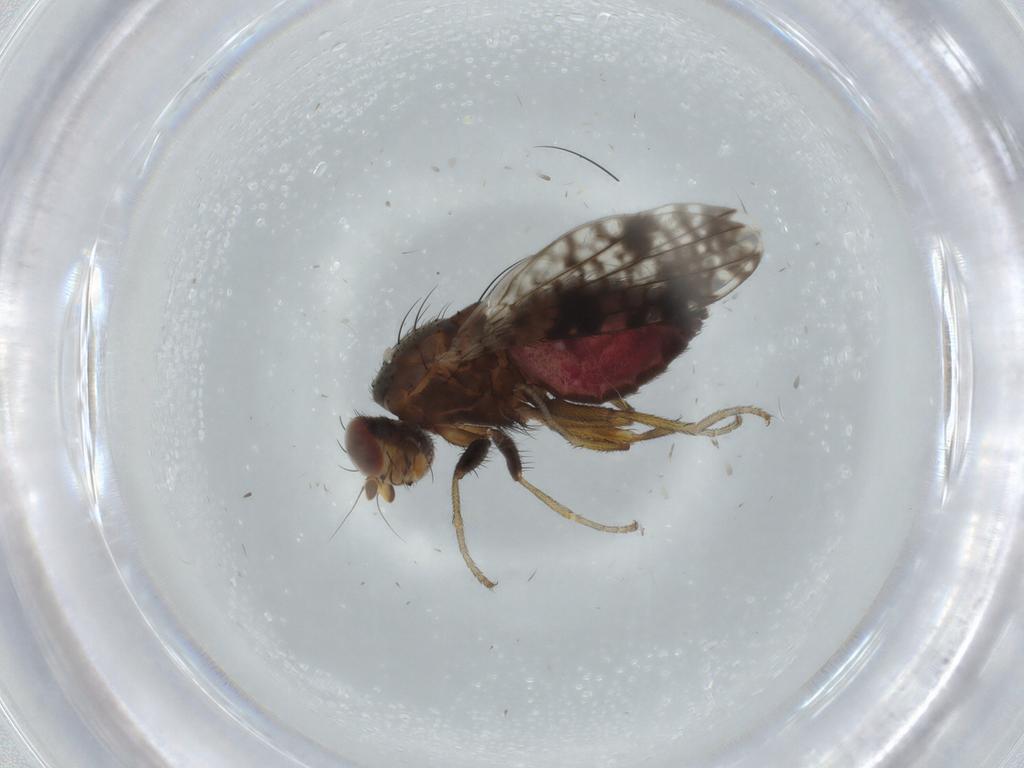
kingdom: Animalia
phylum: Arthropoda
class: Insecta
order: Diptera
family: Tephritidae
